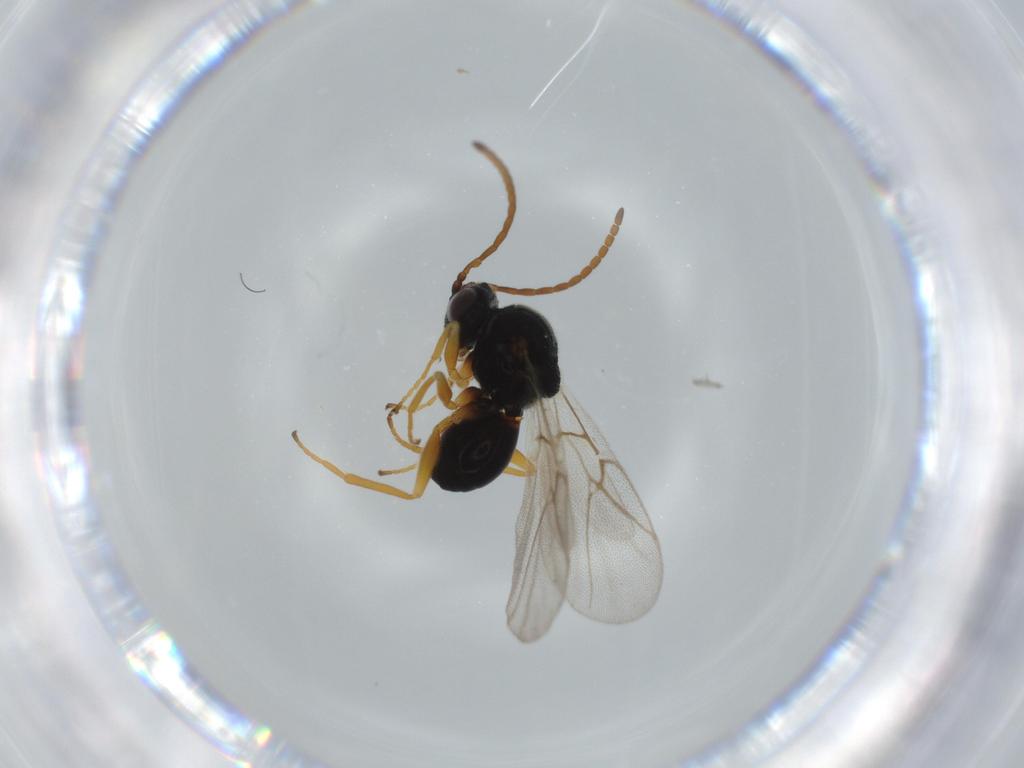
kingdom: Animalia
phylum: Arthropoda
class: Insecta
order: Hymenoptera
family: Cynipidae
